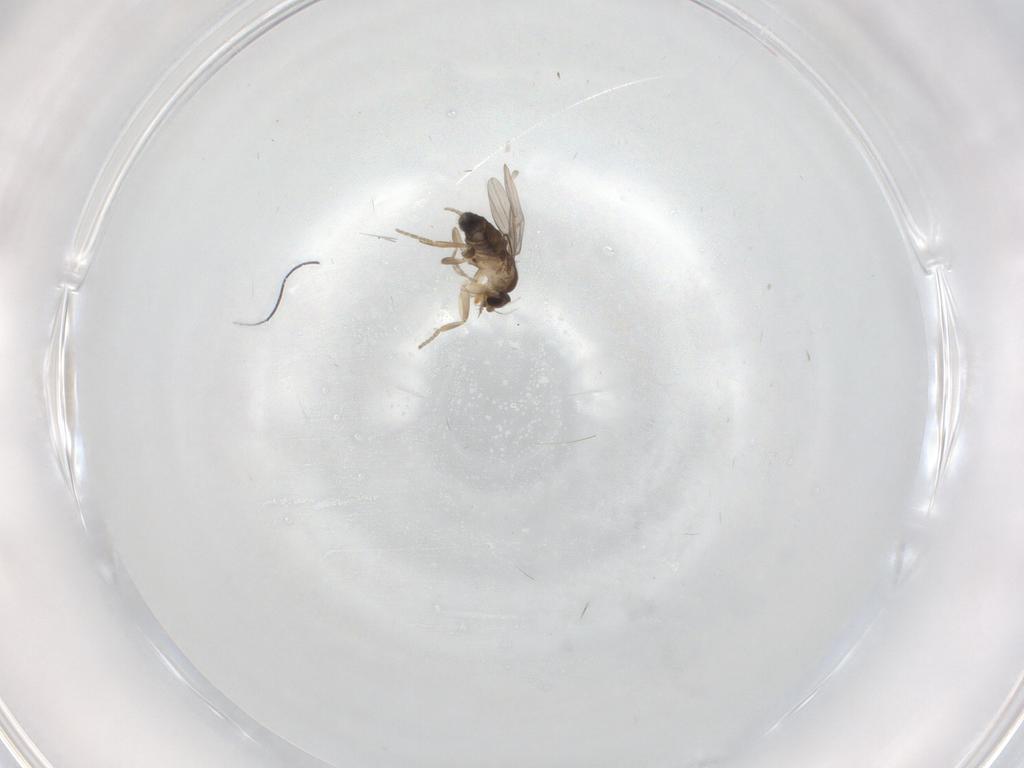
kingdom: Animalia
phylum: Arthropoda
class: Insecta
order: Diptera
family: Phoridae
